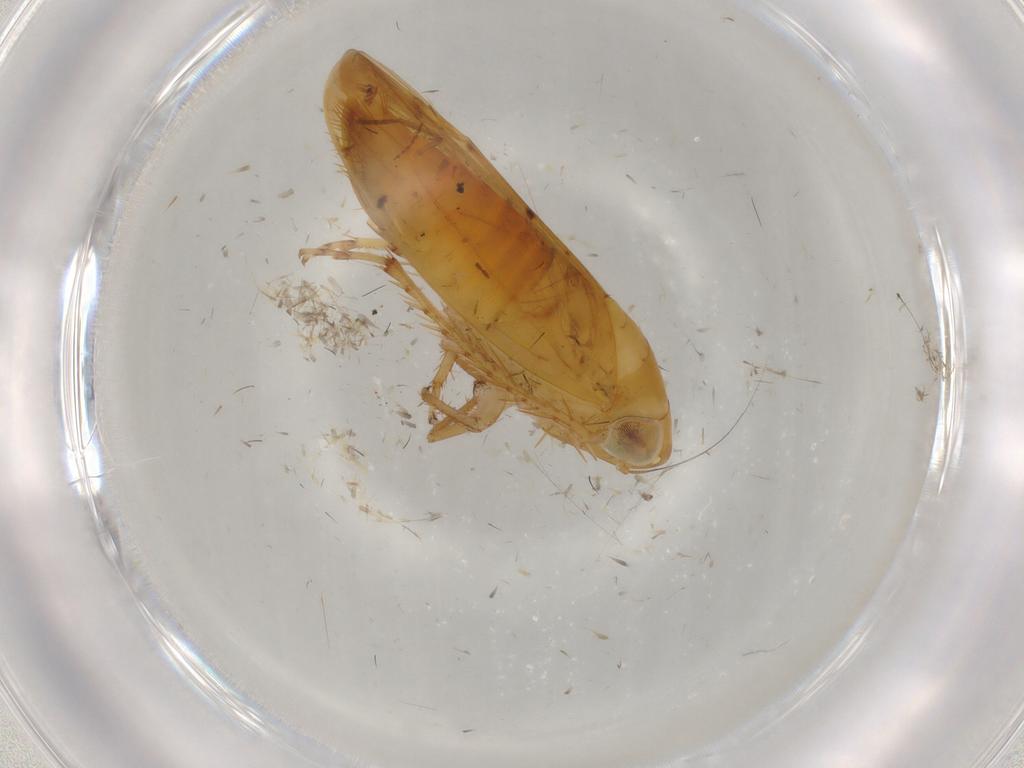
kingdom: Animalia
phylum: Arthropoda
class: Insecta
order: Hemiptera
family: Cicadellidae
